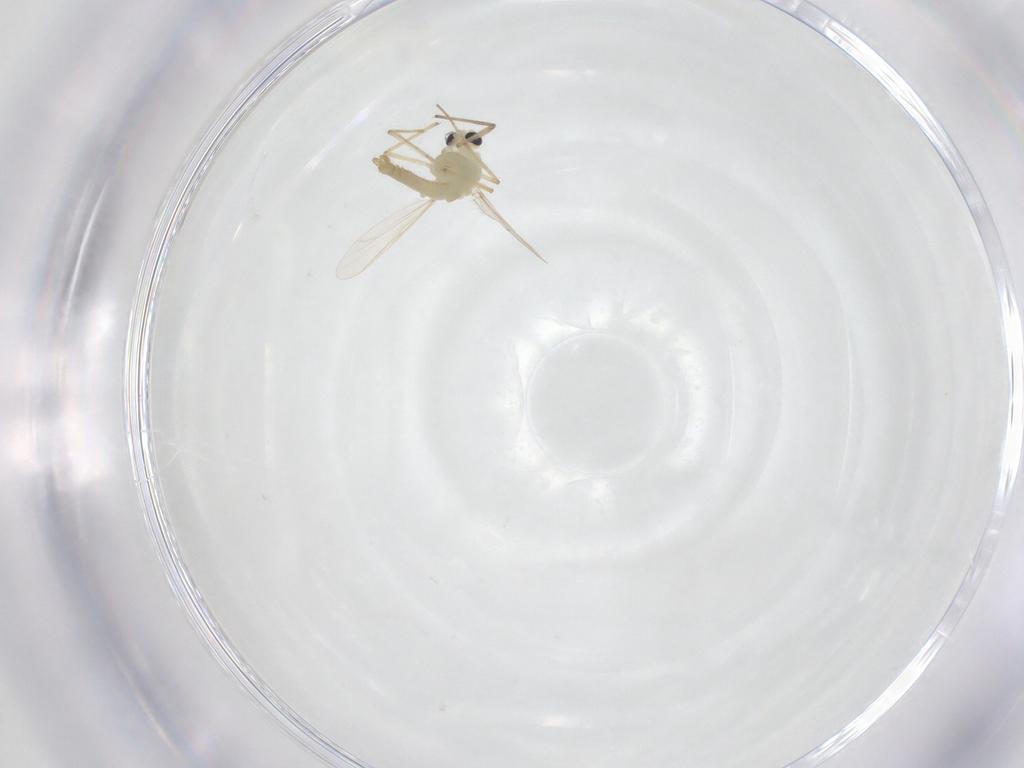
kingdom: Animalia
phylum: Arthropoda
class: Insecta
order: Diptera
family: Chironomidae
